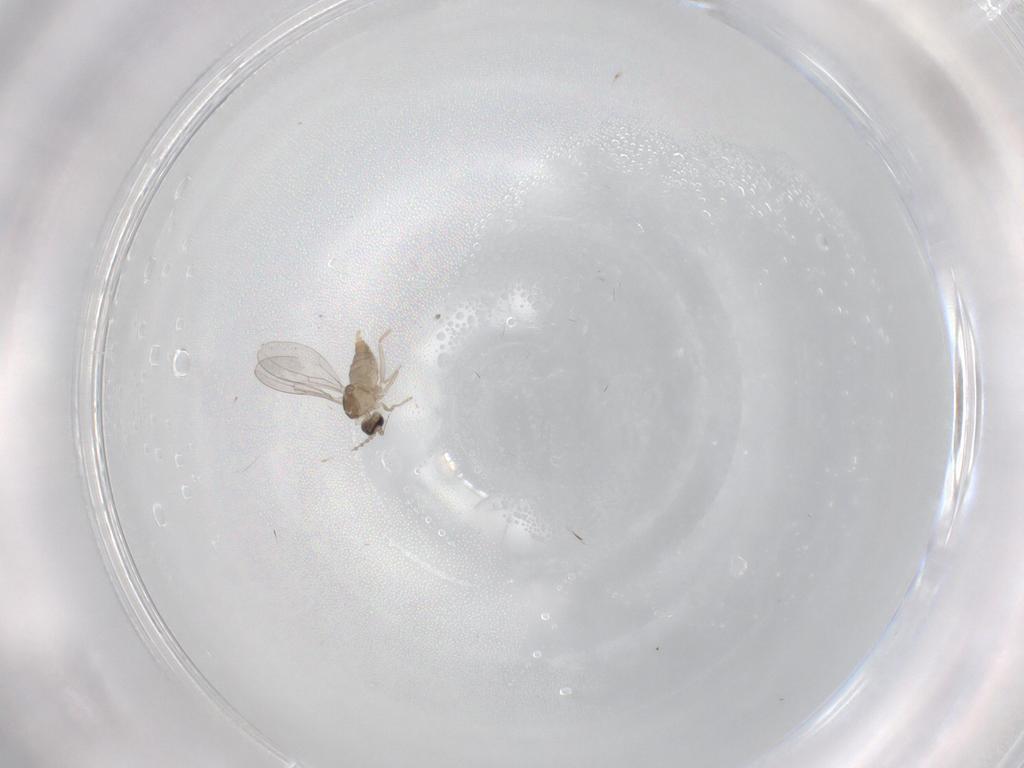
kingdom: Animalia
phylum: Arthropoda
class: Insecta
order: Diptera
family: Cecidomyiidae
